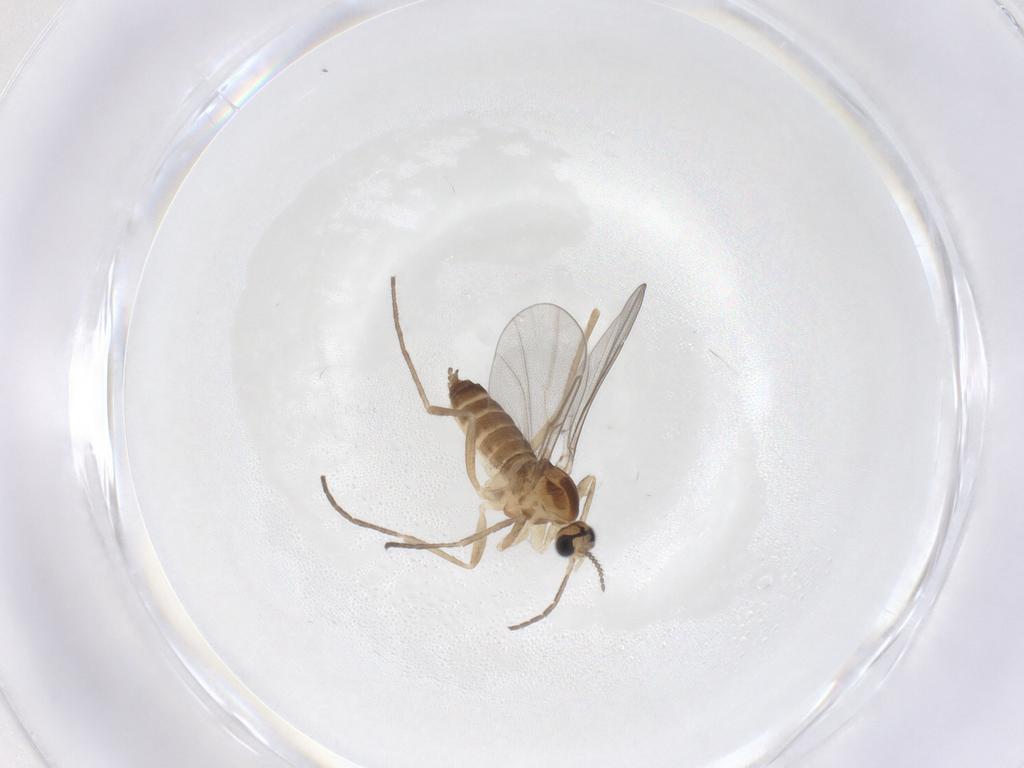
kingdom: Animalia
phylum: Arthropoda
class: Insecta
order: Diptera
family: Cecidomyiidae
